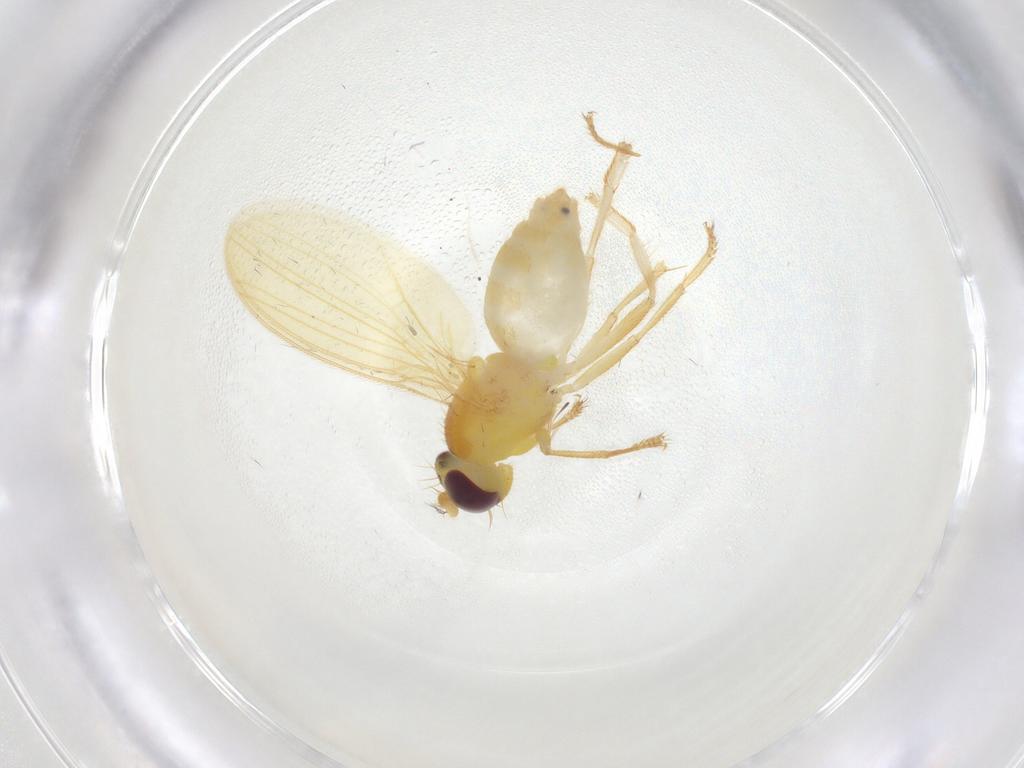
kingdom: Animalia
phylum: Arthropoda
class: Insecta
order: Diptera
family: Periscelididae
